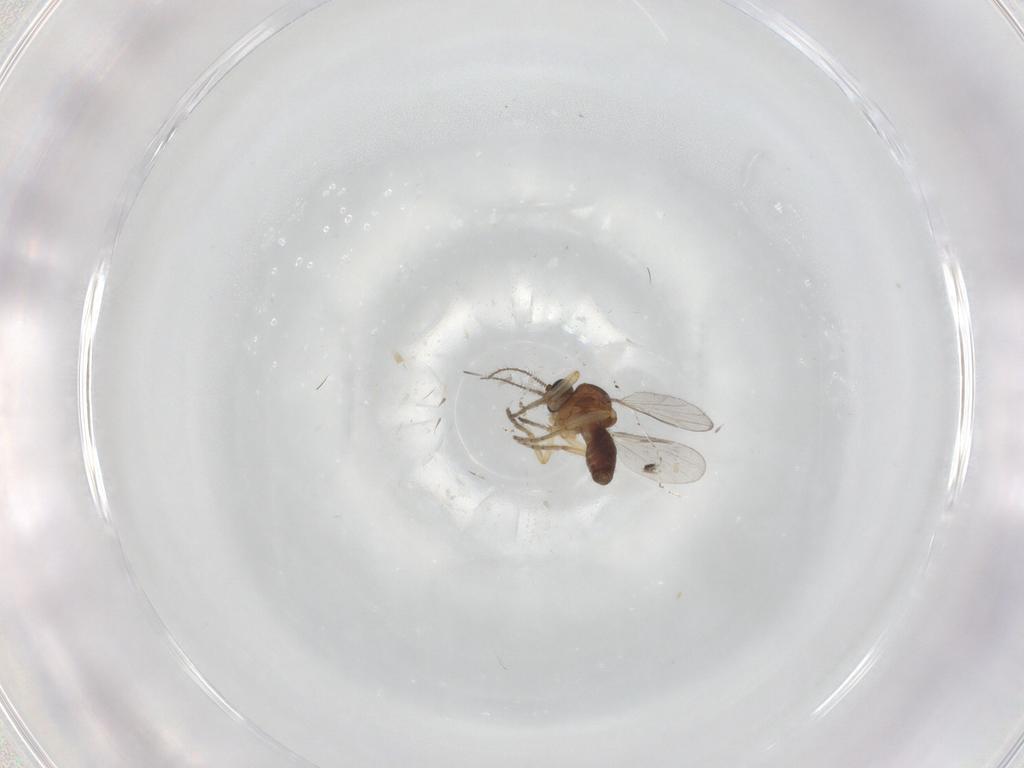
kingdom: Animalia
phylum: Arthropoda
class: Insecta
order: Diptera
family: Ceratopogonidae
